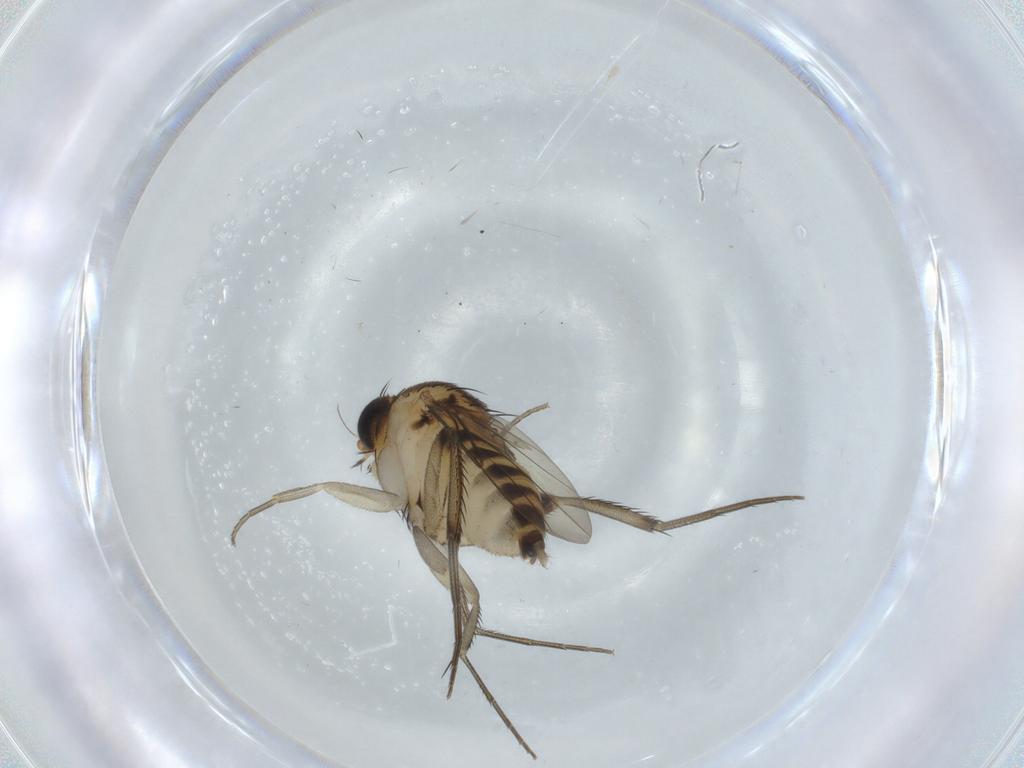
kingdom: Animalia
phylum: Arthropoda
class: Insecta
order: Diptera
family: Phoridae
